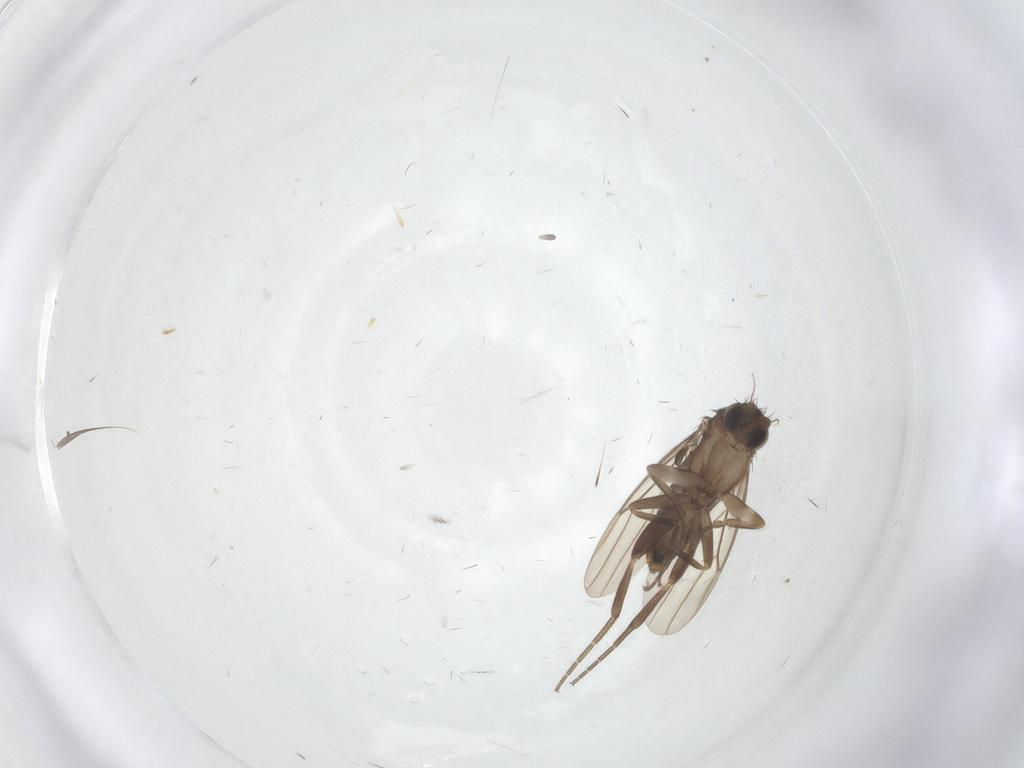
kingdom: Animalia
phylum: Arthropoda
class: Insecta
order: Diptera
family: Phoridae
